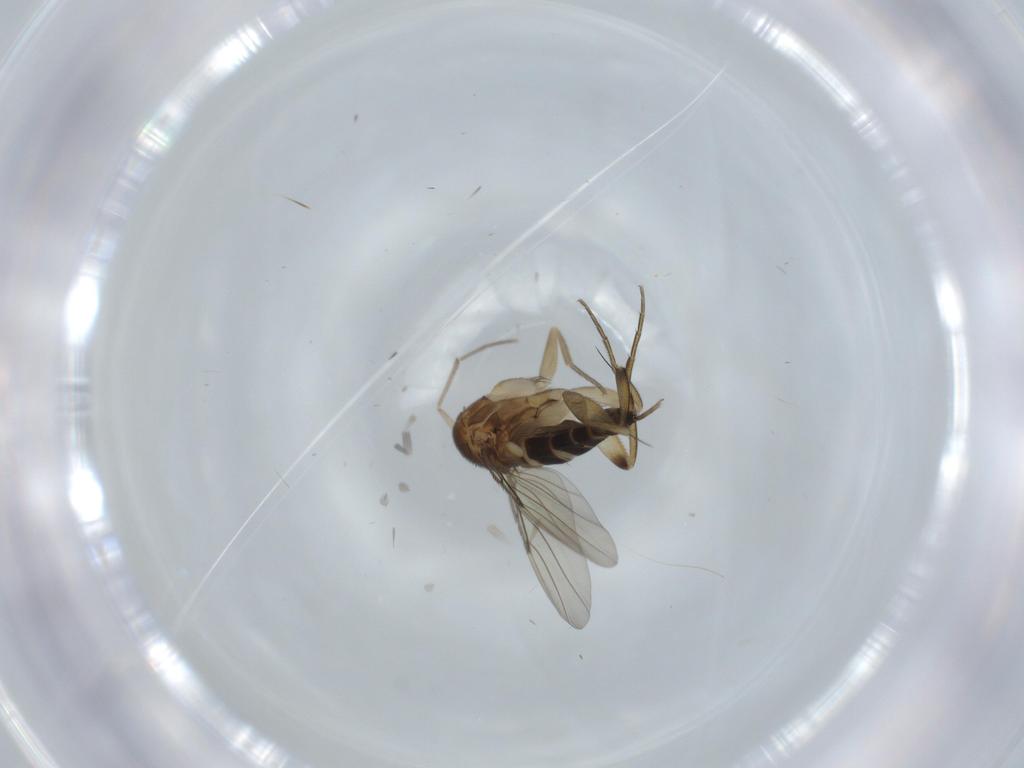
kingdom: Animalia
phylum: Arthropoda
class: Insecta
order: Diptera
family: Phoridae
